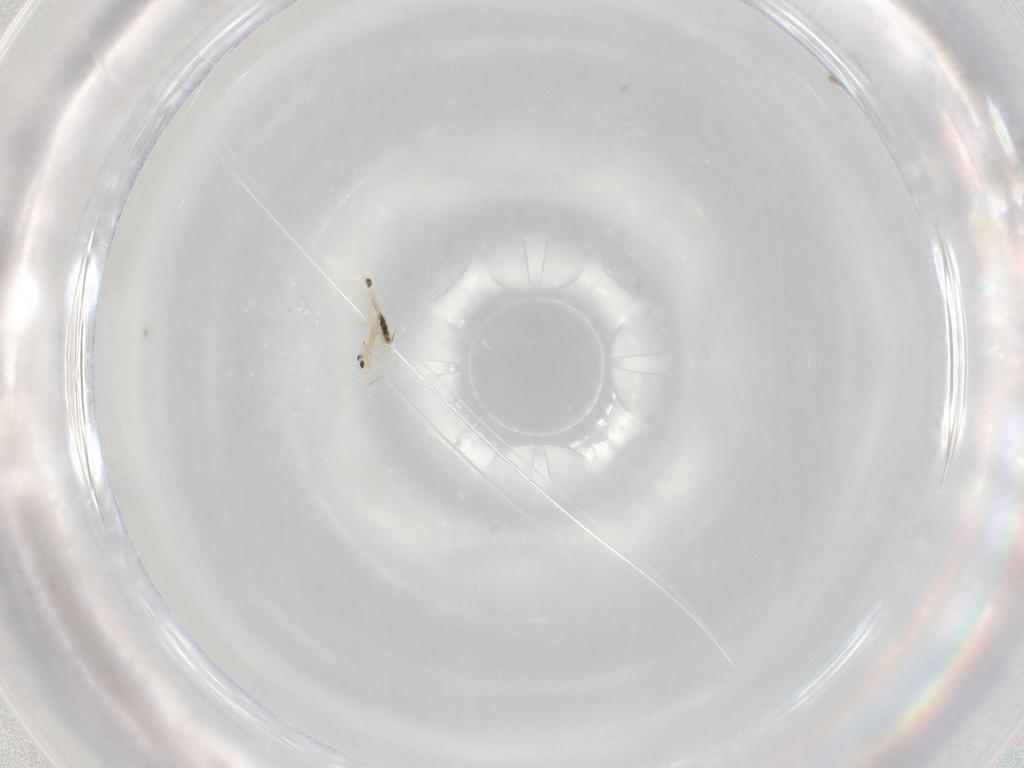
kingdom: Animalia
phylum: Arthropoda
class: Collembola
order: Entomobryomorpha
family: Entomobryidae
